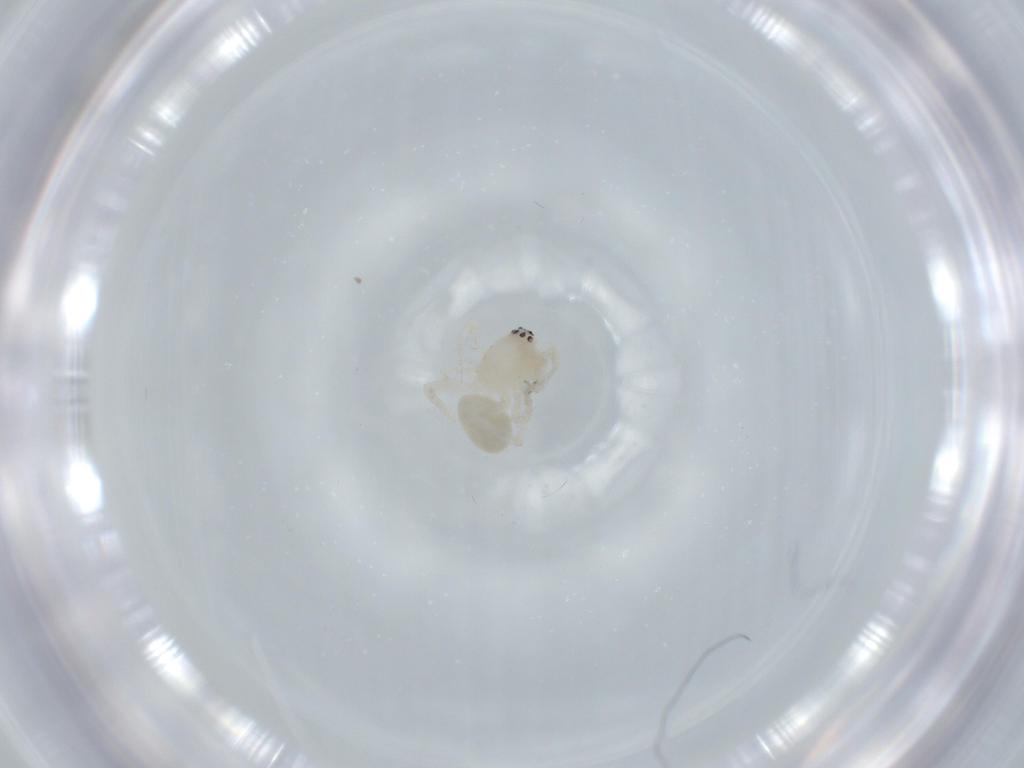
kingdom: Animalia
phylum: Arthropoda
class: Arachnida
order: Araneae
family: Anyphaenidae
